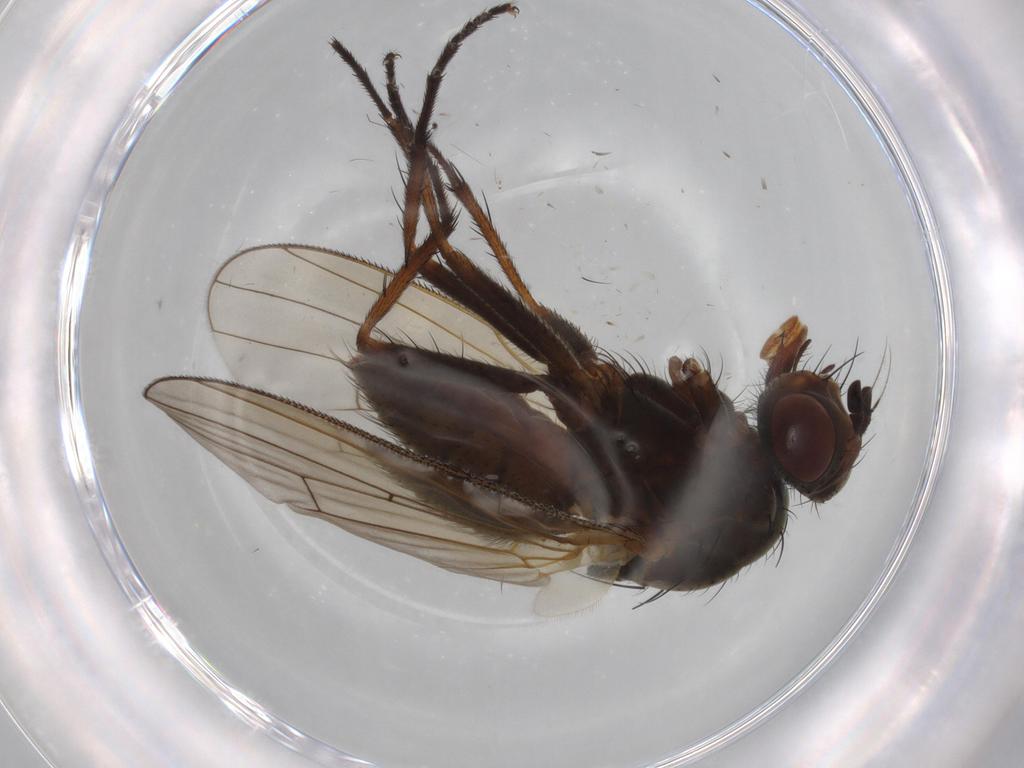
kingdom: Animalia
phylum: Arthropoda
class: Insecta
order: Diptera
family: Anthomyiidae
